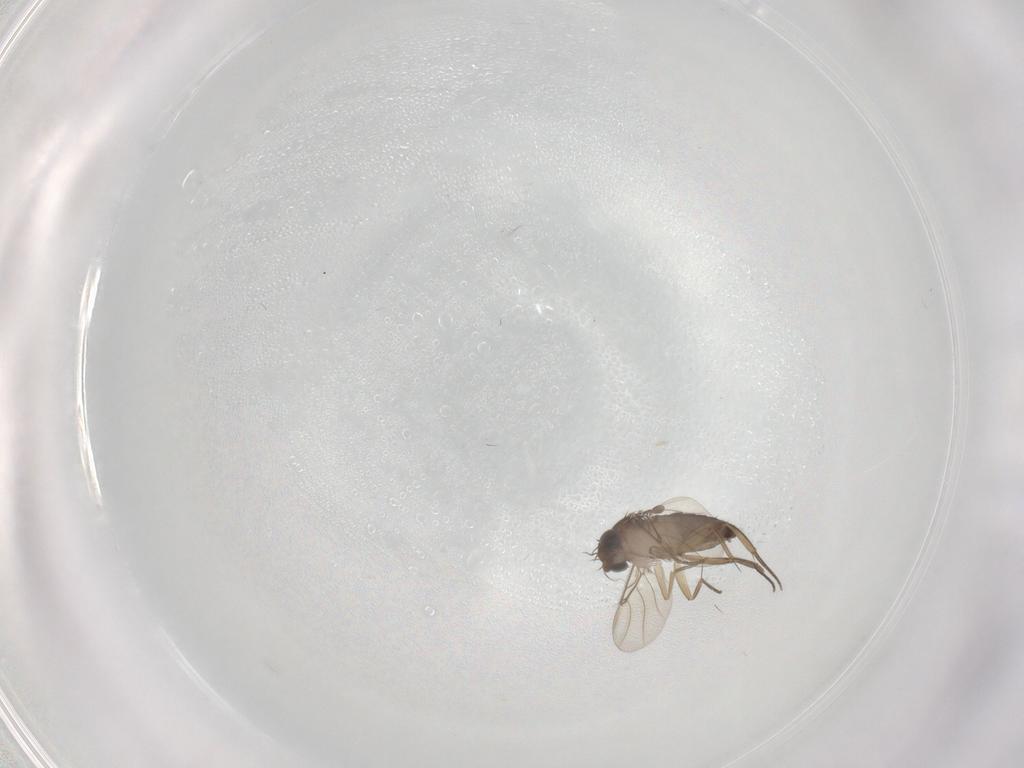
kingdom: Animalia
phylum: Arthropoda
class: Insecta
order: Diptera
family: Phoridae
